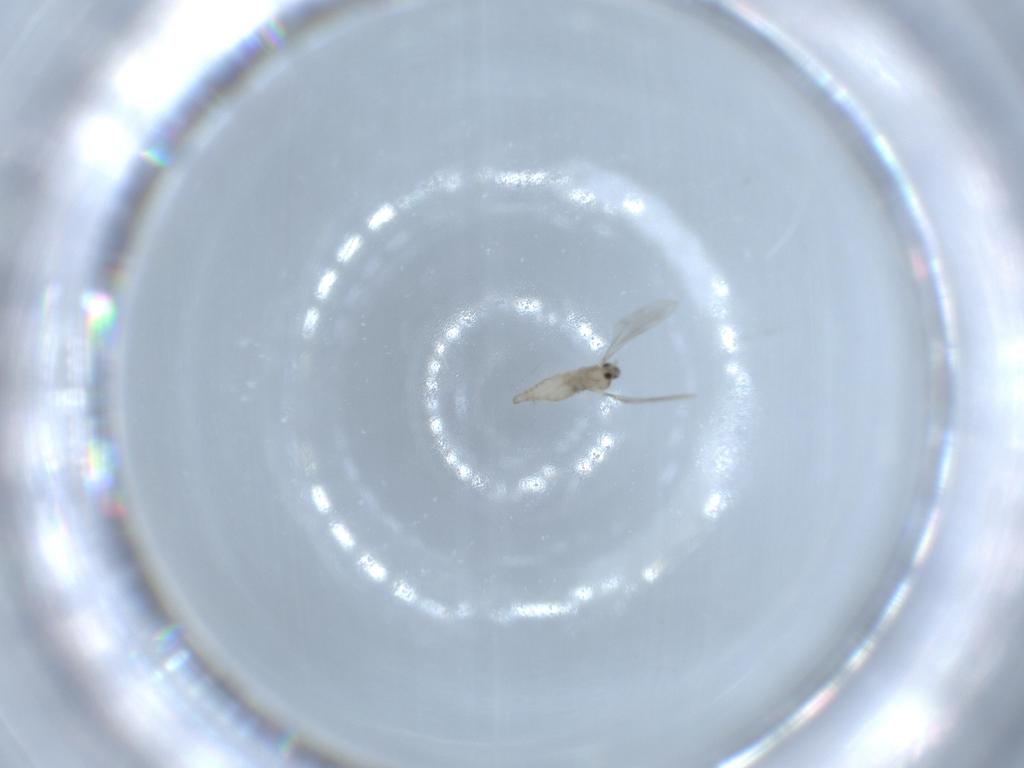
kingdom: Animalia
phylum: Arthropoda
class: Insecta
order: Diptera
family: Cecidomyiidae
